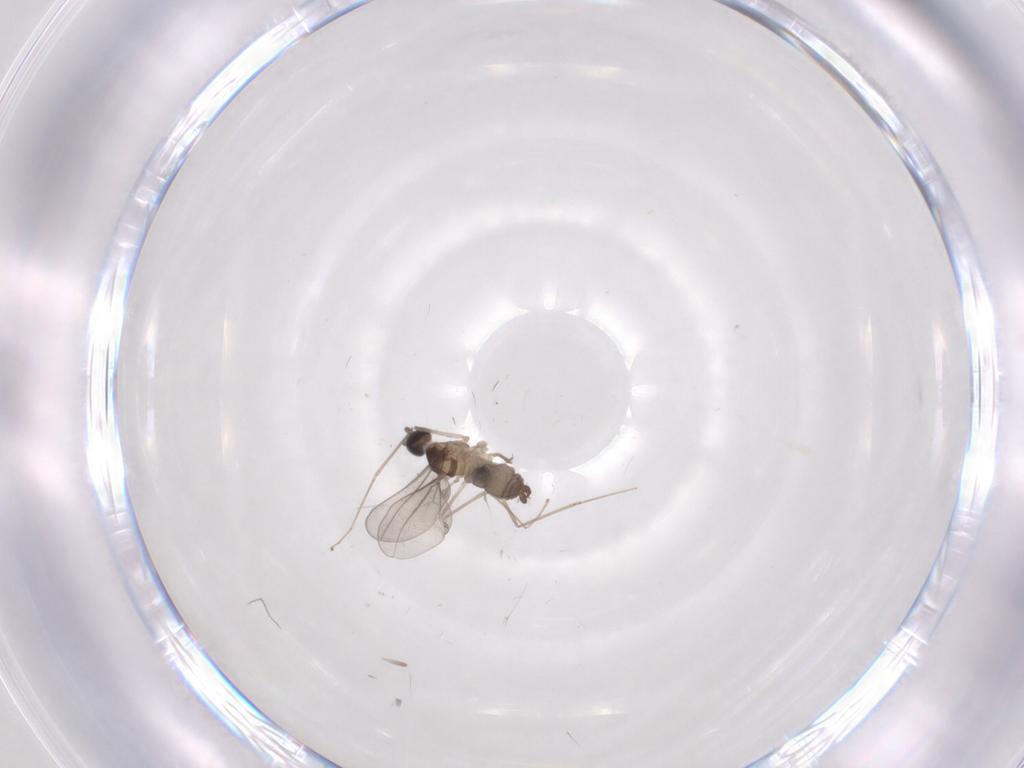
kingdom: Animalia
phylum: Arthropoda
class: Insecta
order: Diptera
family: Cecidomyiidae
